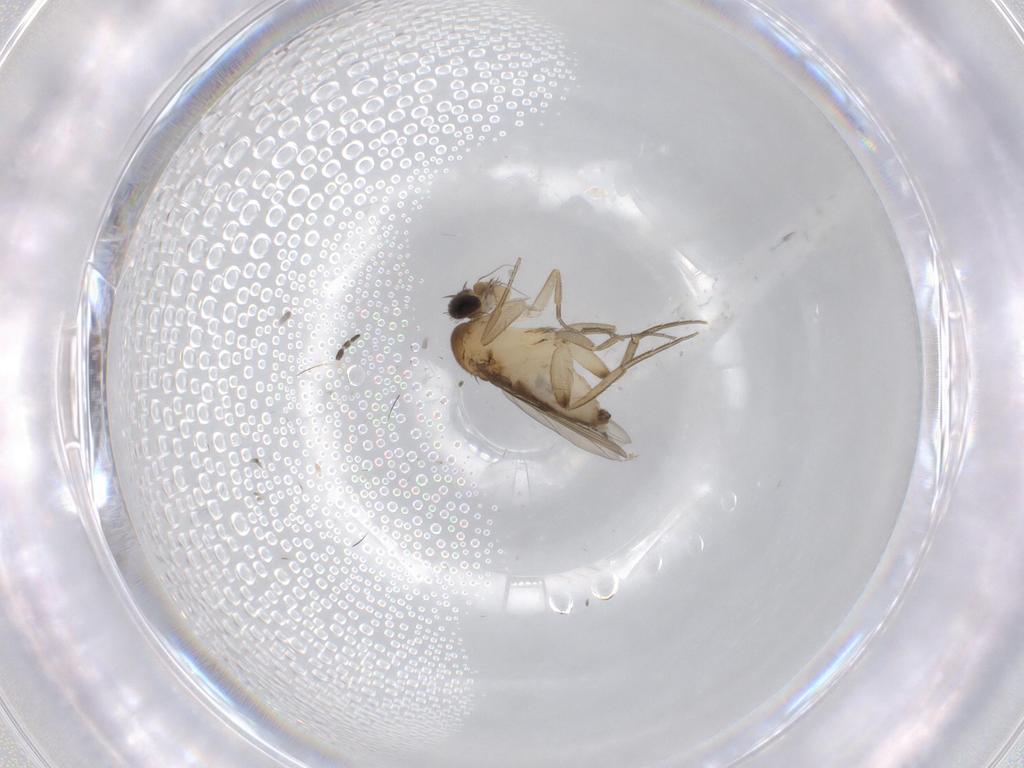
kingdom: Animalia
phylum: Arthropoda
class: Insecta
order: Diptera
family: Phoridae
